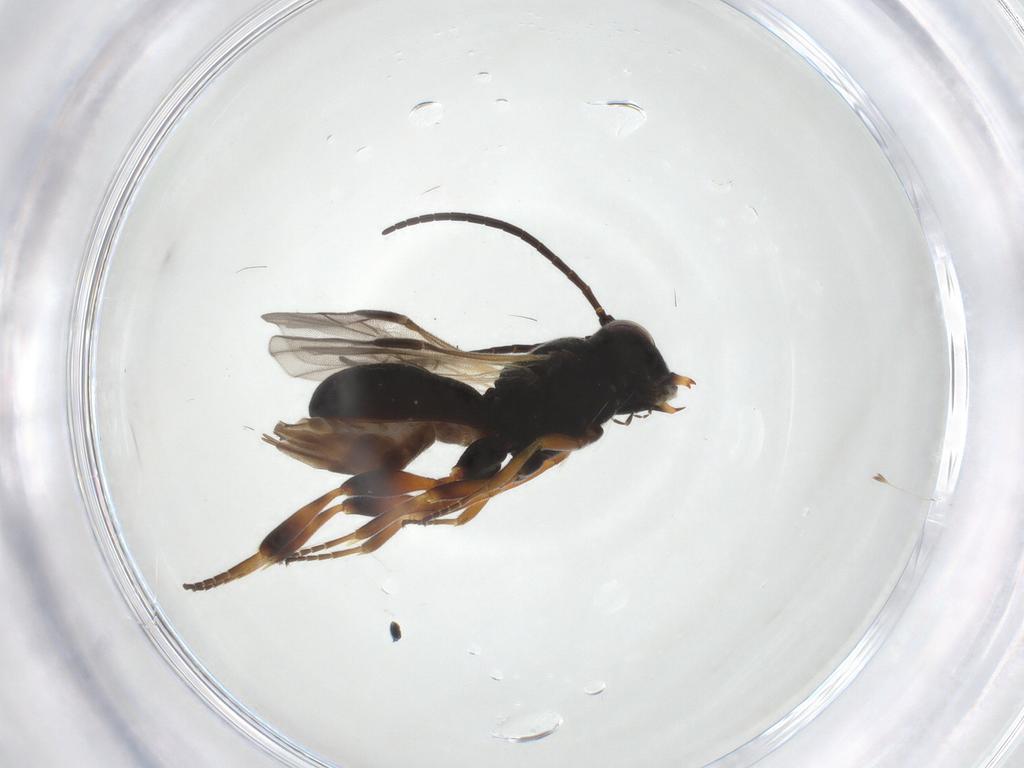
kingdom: Animalia
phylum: Arthropoda
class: Insecta
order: Hymenoptera
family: Braconidae
